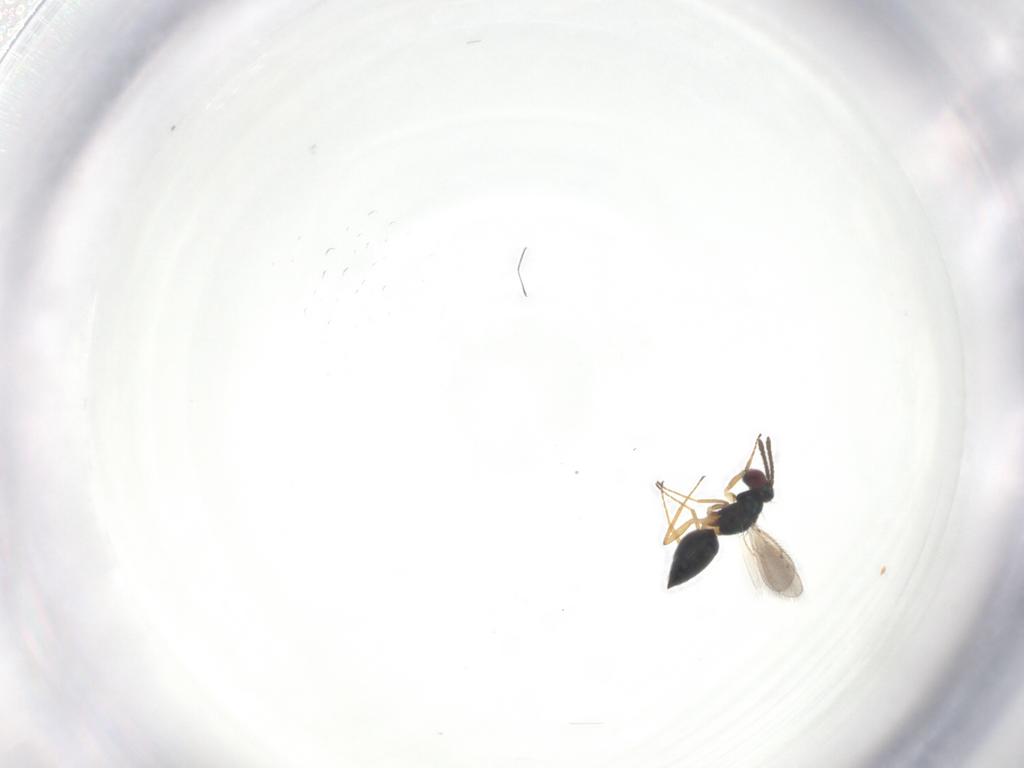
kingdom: Animalia
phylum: Arthropoda
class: Insecta
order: Hymenoptera
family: Tetracampidae
